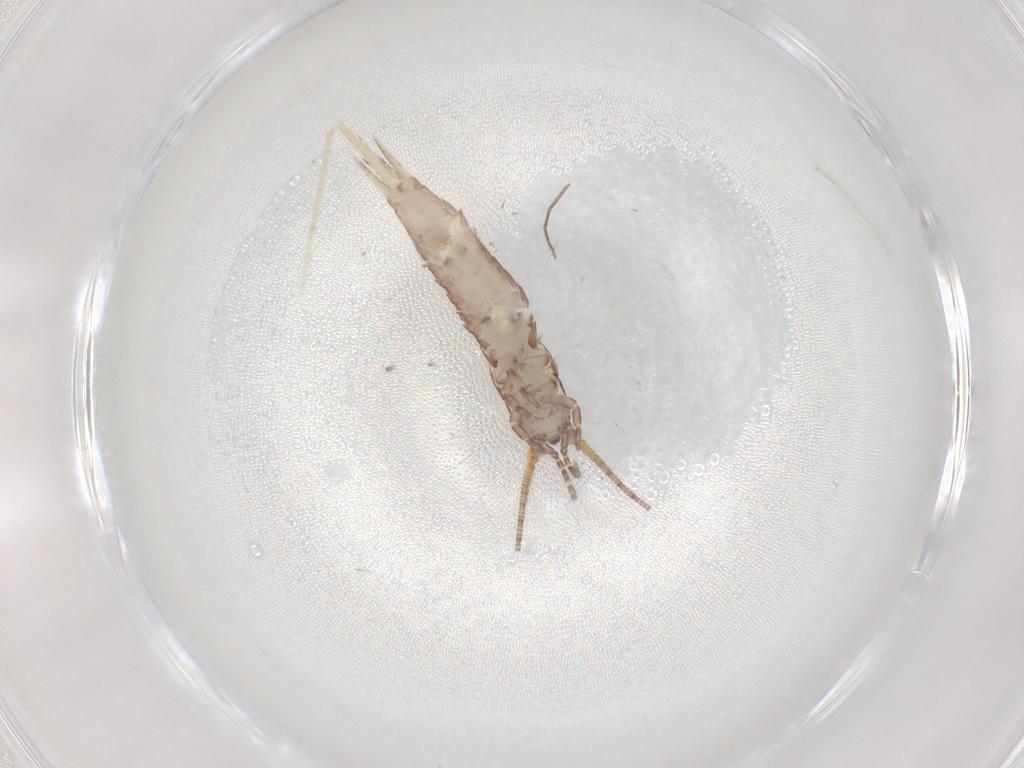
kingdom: Animalia
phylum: Arthropoda
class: Insecta
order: Archaeognatha
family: Machilidae
